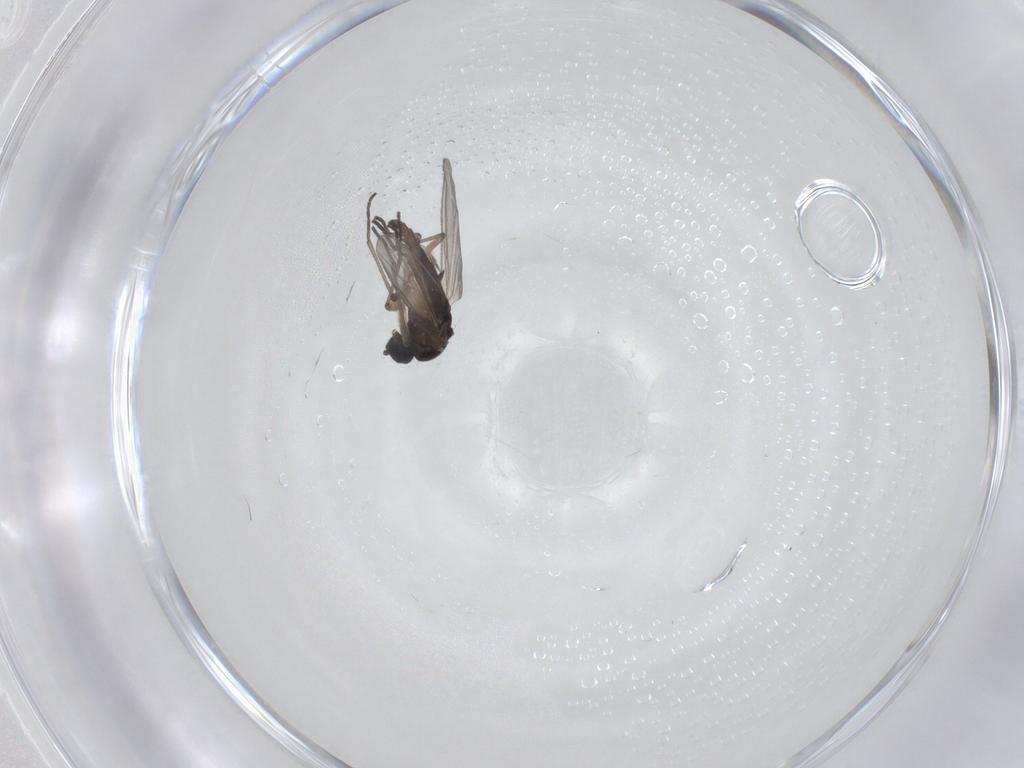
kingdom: Animalia
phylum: Arthropoda
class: Insecta
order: Diptera
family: Sciaridae
